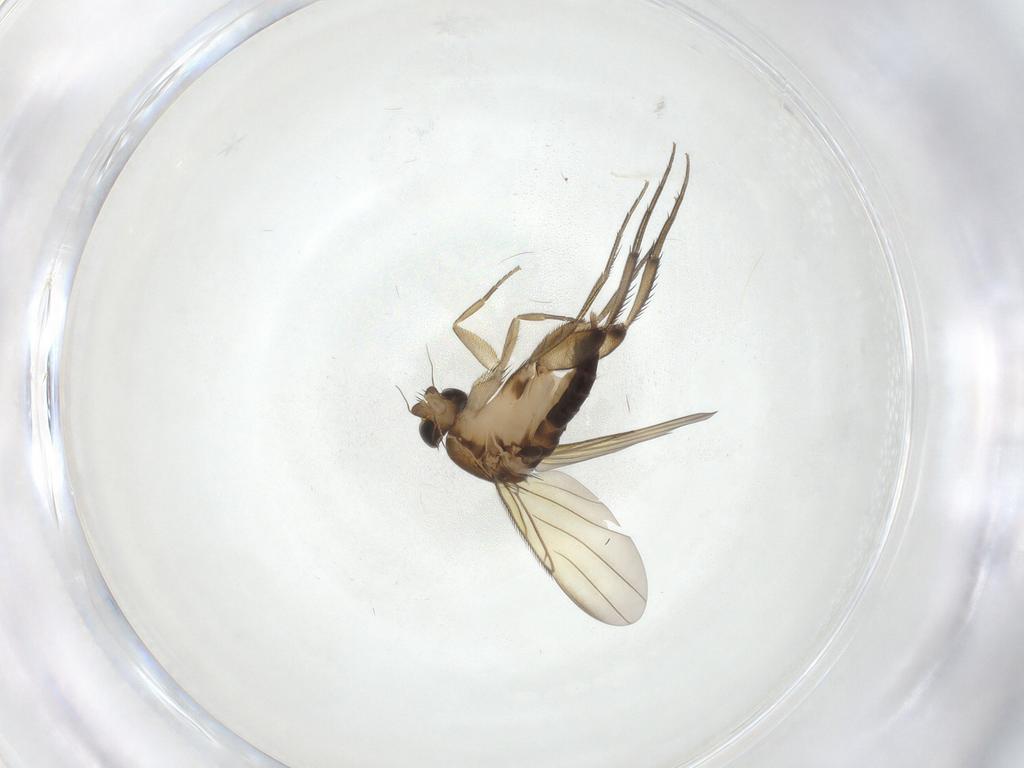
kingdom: Animalia
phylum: Arthropoda
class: Insecta
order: Diptera
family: Phoridae
